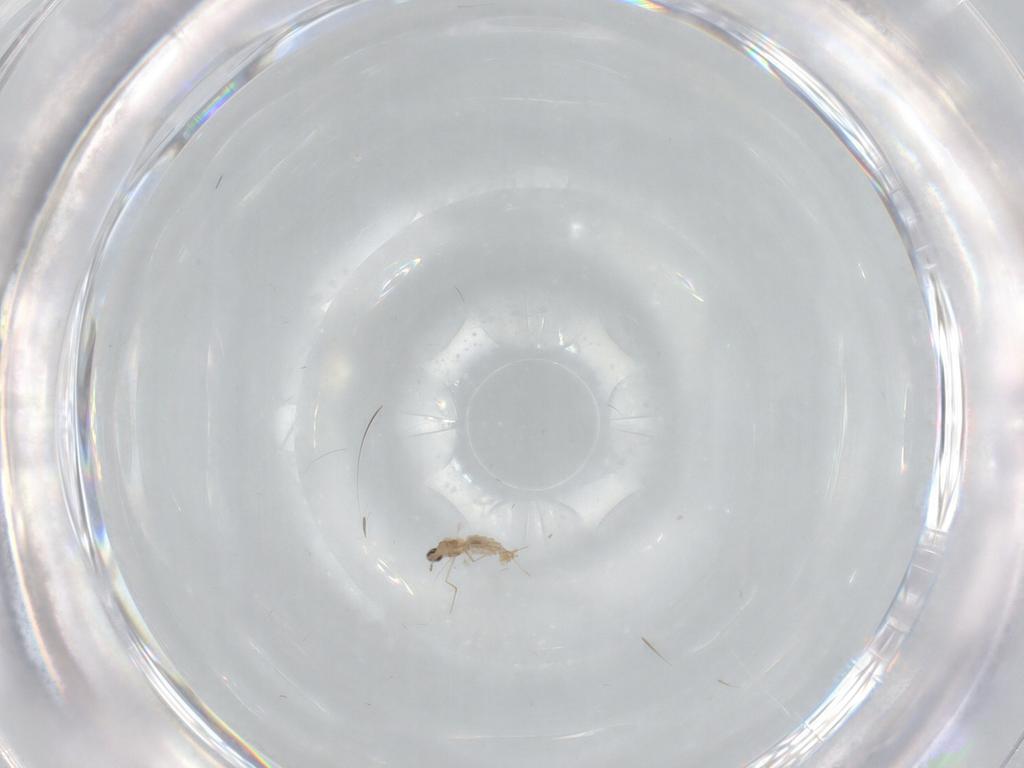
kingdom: Animalia
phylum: Arthropoda
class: Insecta
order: Diptera
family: Cecidomyiidae
